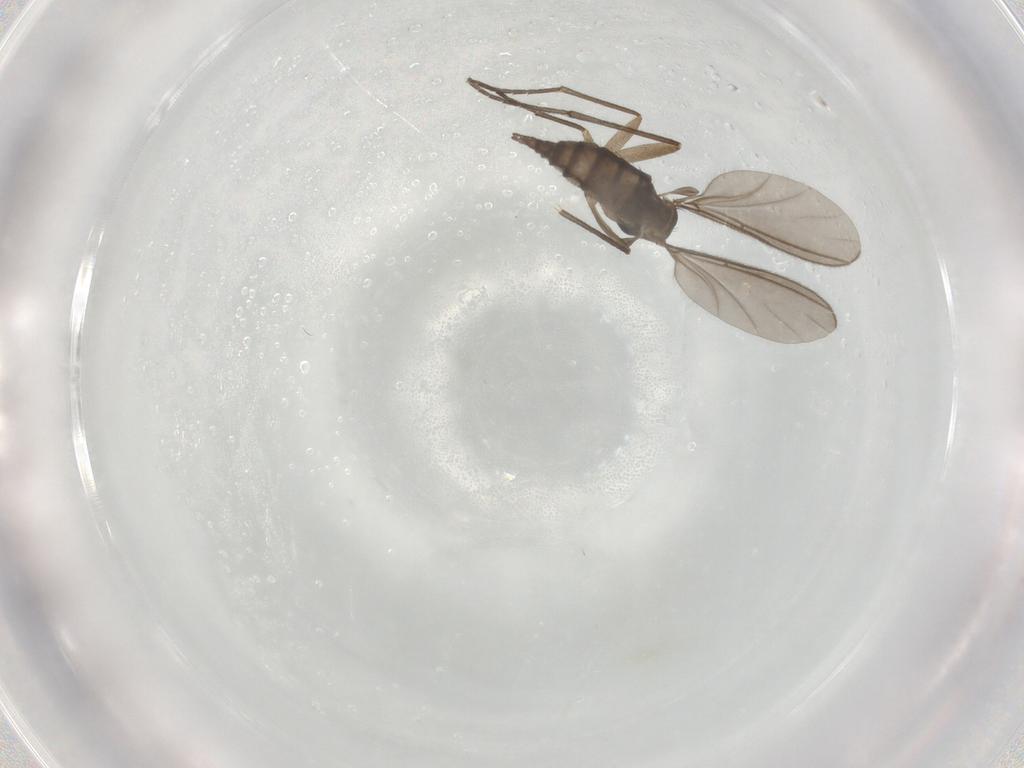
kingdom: Animalia
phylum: Arthropoda
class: Insecta
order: Diptera
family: Sciaridae
